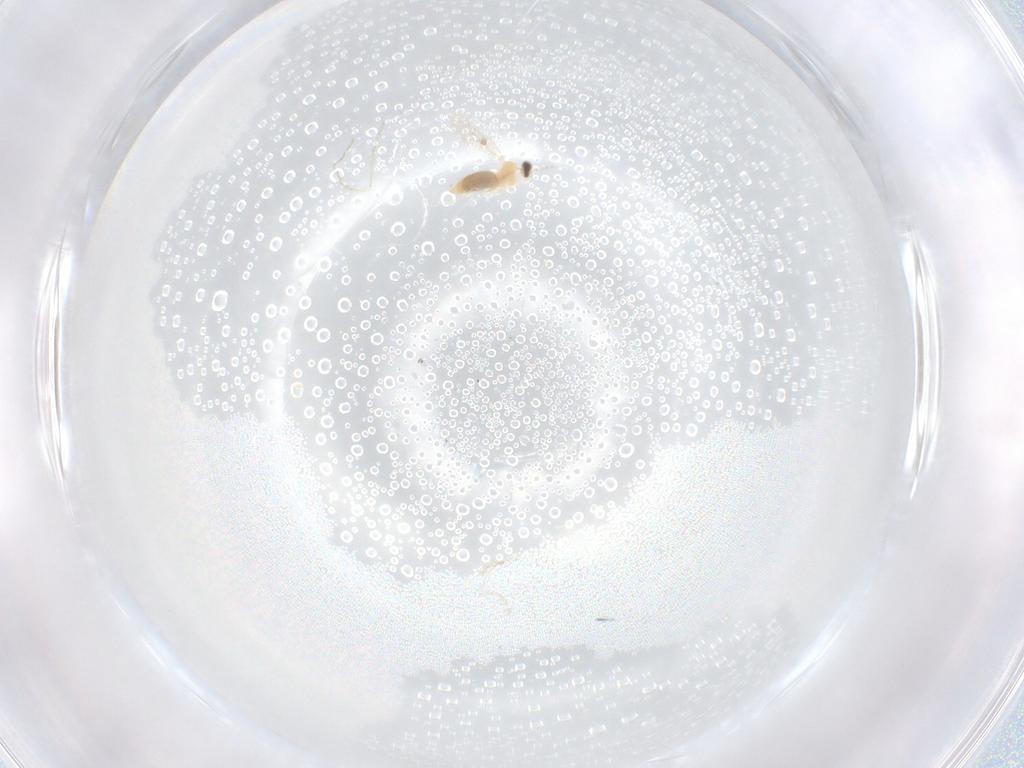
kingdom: Animalia
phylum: Arthropoda
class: Insecta
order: Diptera
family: Cecidomyiidae
